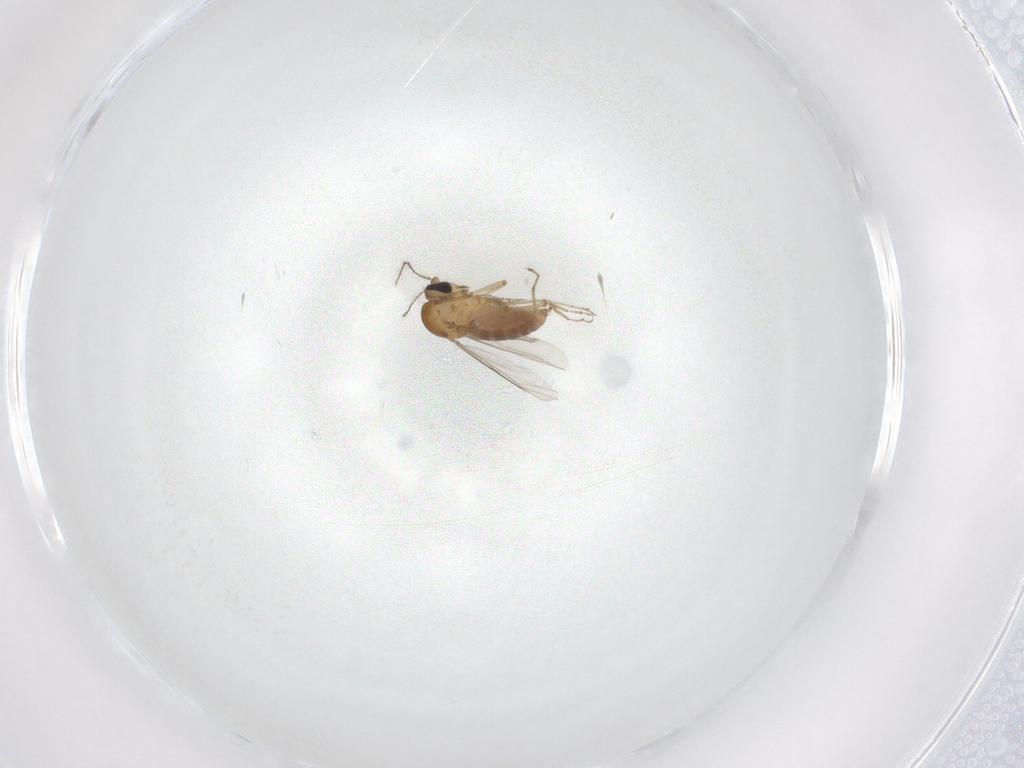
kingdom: Animalia
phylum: Arthropoda
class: Insecta
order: Diptera
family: Ceratopogonidae
